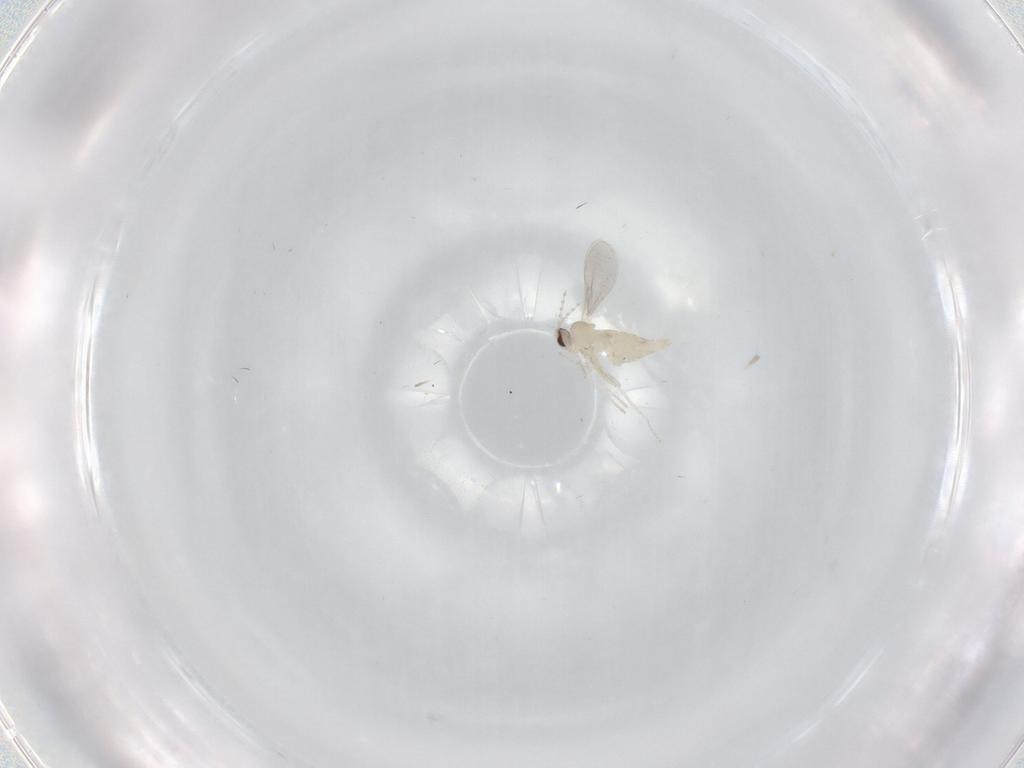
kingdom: Animalia
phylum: Arthropoda
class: Insecta
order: Diptera
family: Cecidomyiidae
